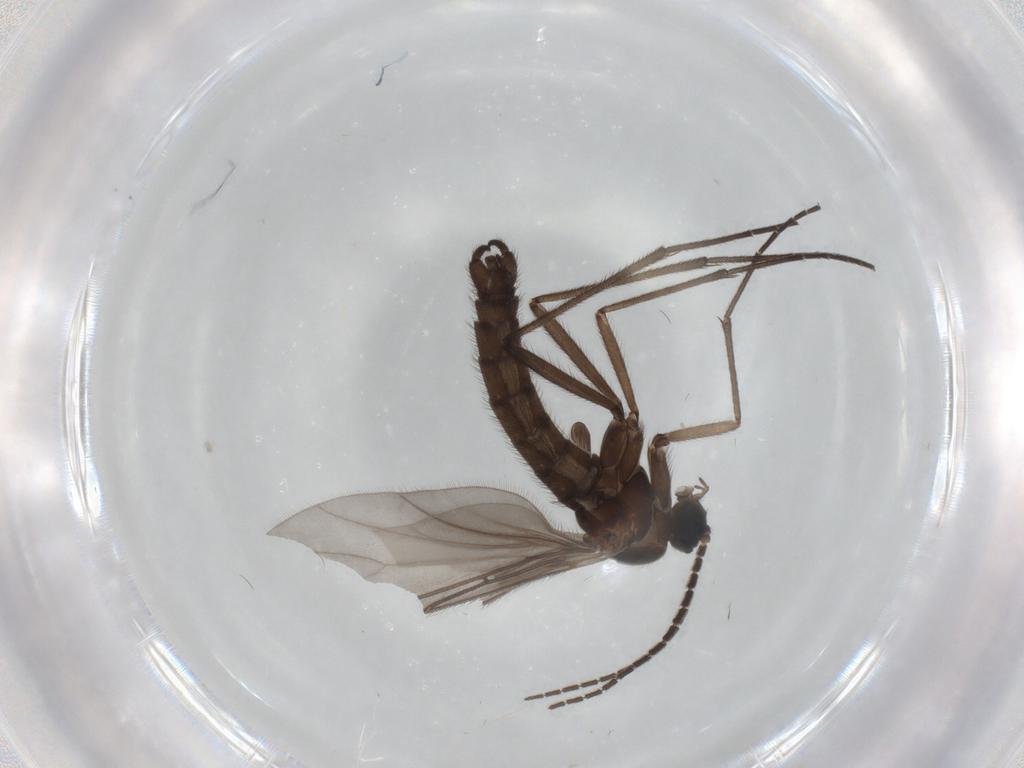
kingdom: Animalia
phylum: Arthropoda
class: Insecta
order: Diptera
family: Sciaridae
